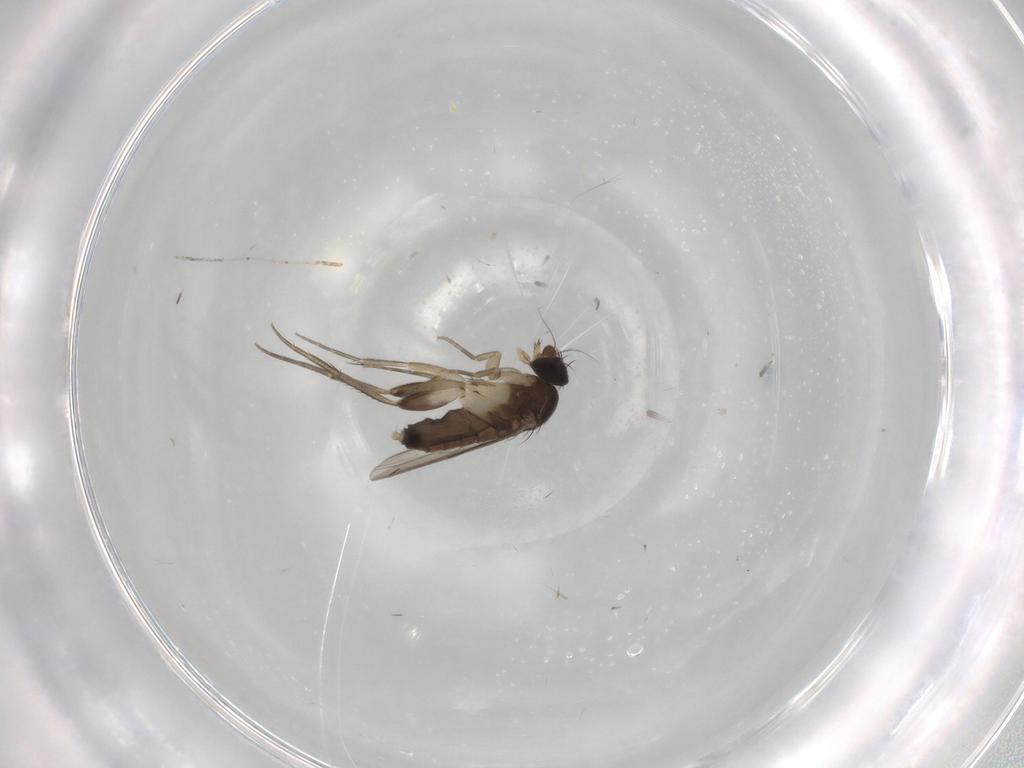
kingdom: Animalia
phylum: Arthropoda
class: Insecta
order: Diptera
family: Phoridae
